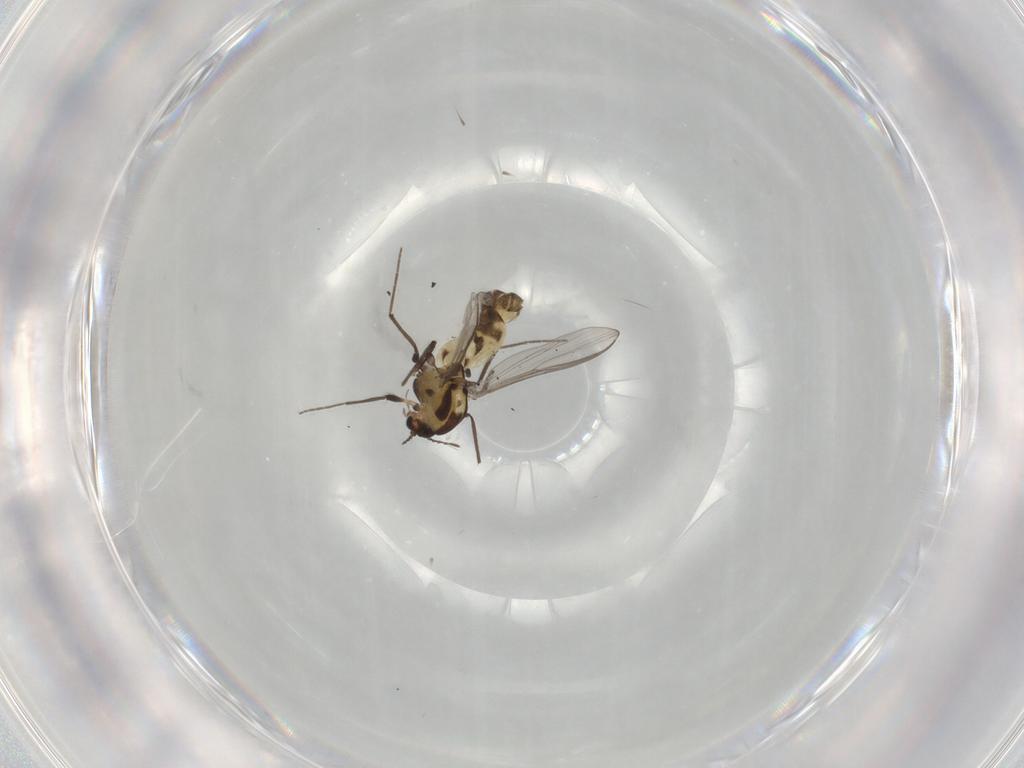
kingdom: Animalia
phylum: Arthropoda
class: Insecta
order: Diptera
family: Chironomidae
